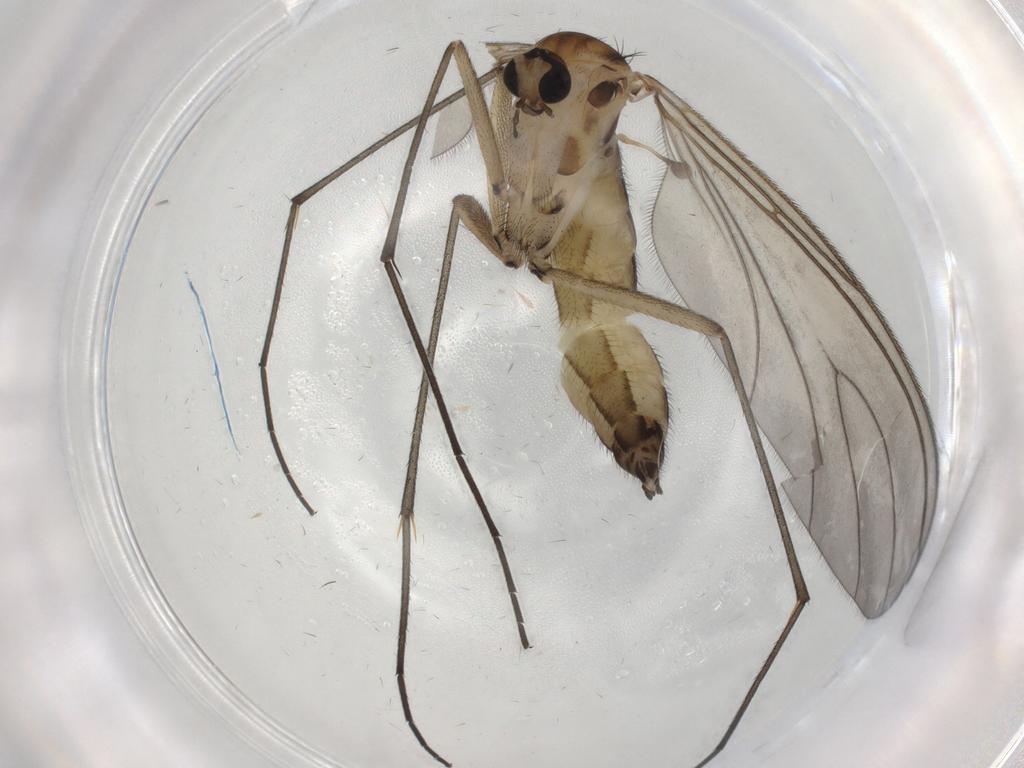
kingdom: Animalia
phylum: Arthropoda
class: Insecta
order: Diptera
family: Sciaridae
